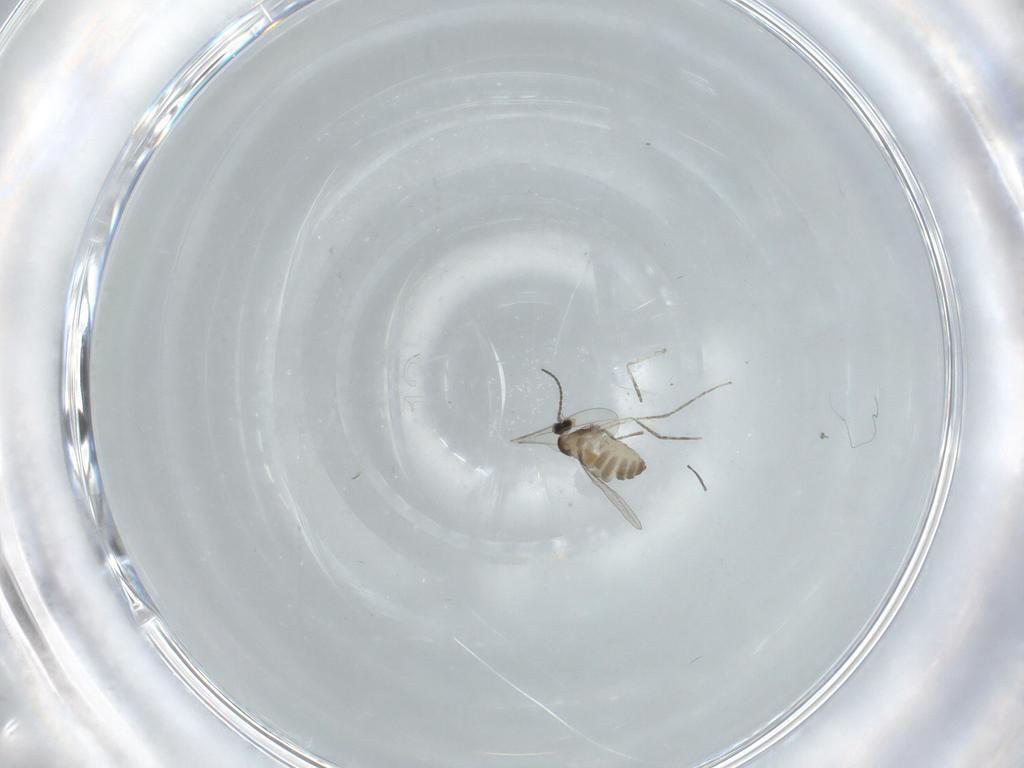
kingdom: Animalia
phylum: Arthropoda
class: Insecta
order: Diptera
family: Cecidomyiidae
